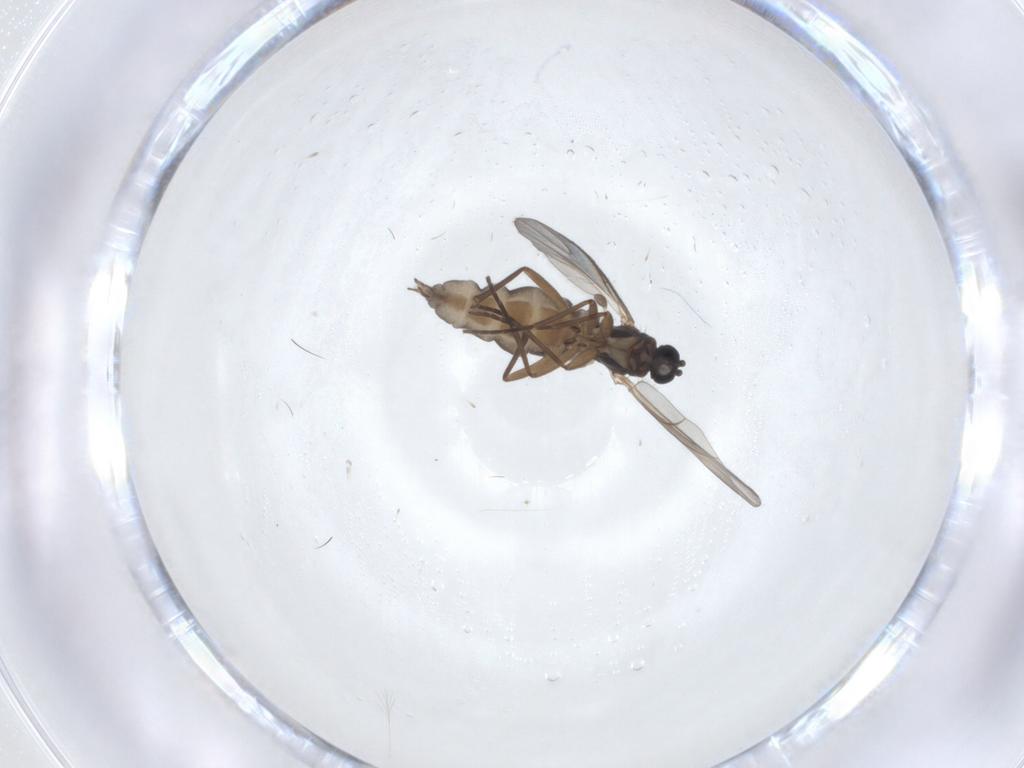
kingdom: Animalia
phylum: Arthropoda
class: Insecta
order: Diptera
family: Sciaridae
